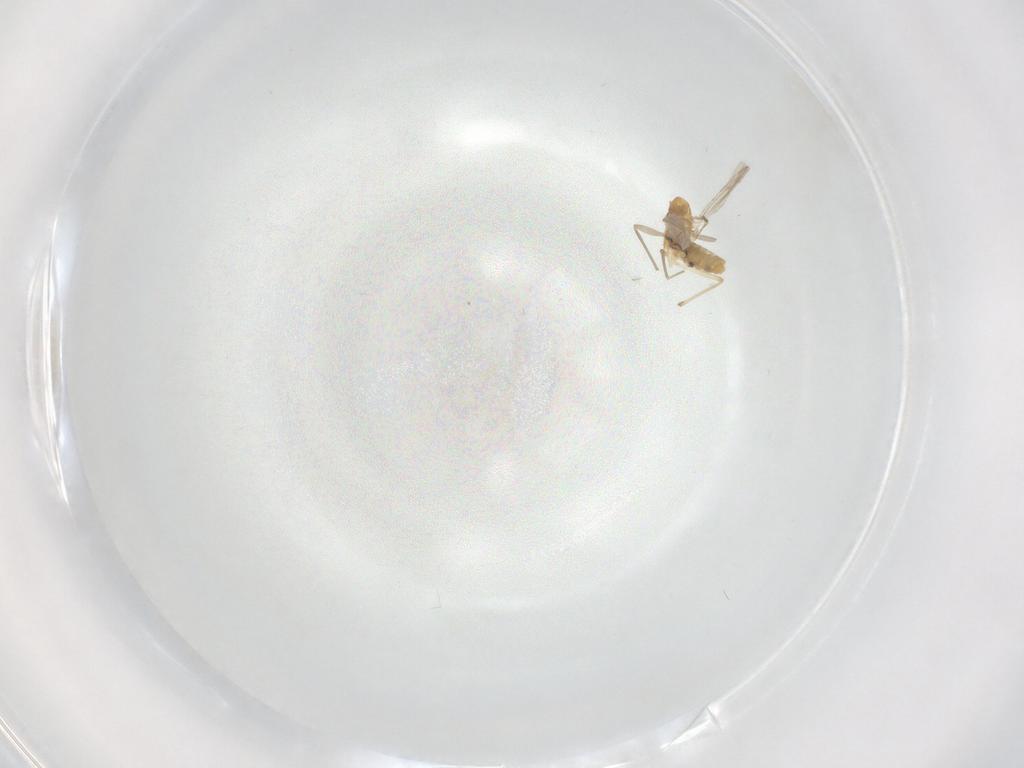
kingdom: Animalia
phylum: Arthropoda
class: Insecta
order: Diptera
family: Chironomidae
